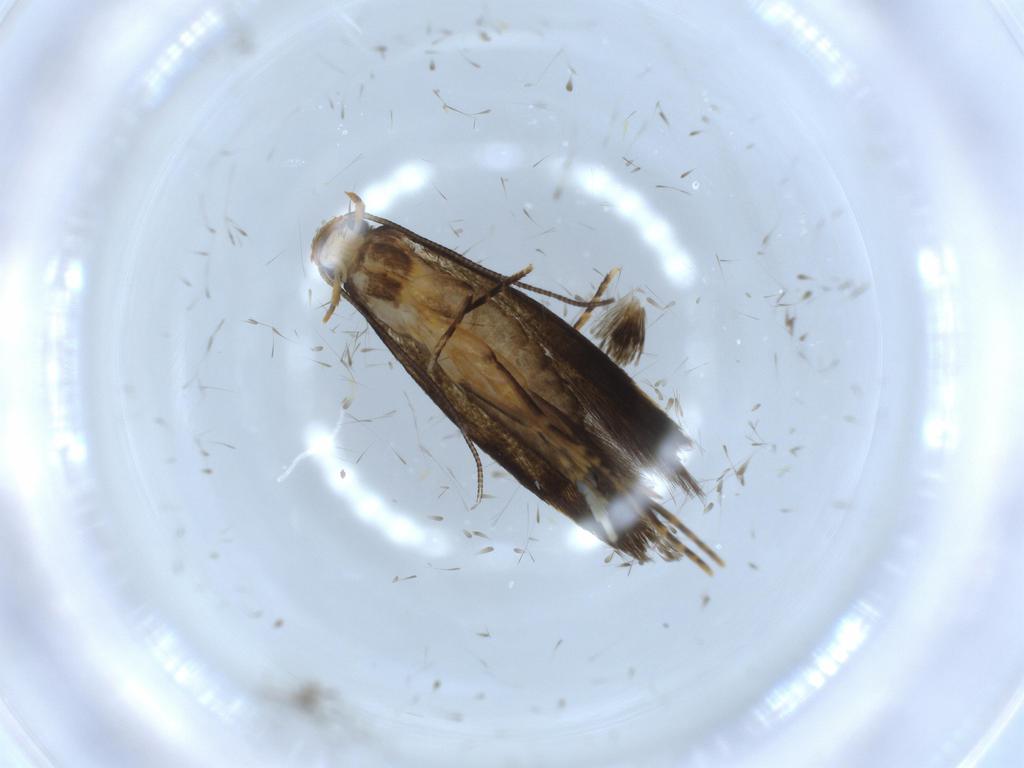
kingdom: Animalia
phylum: Arthropoda
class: Insecta
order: Lepidoptera
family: Tineidae
